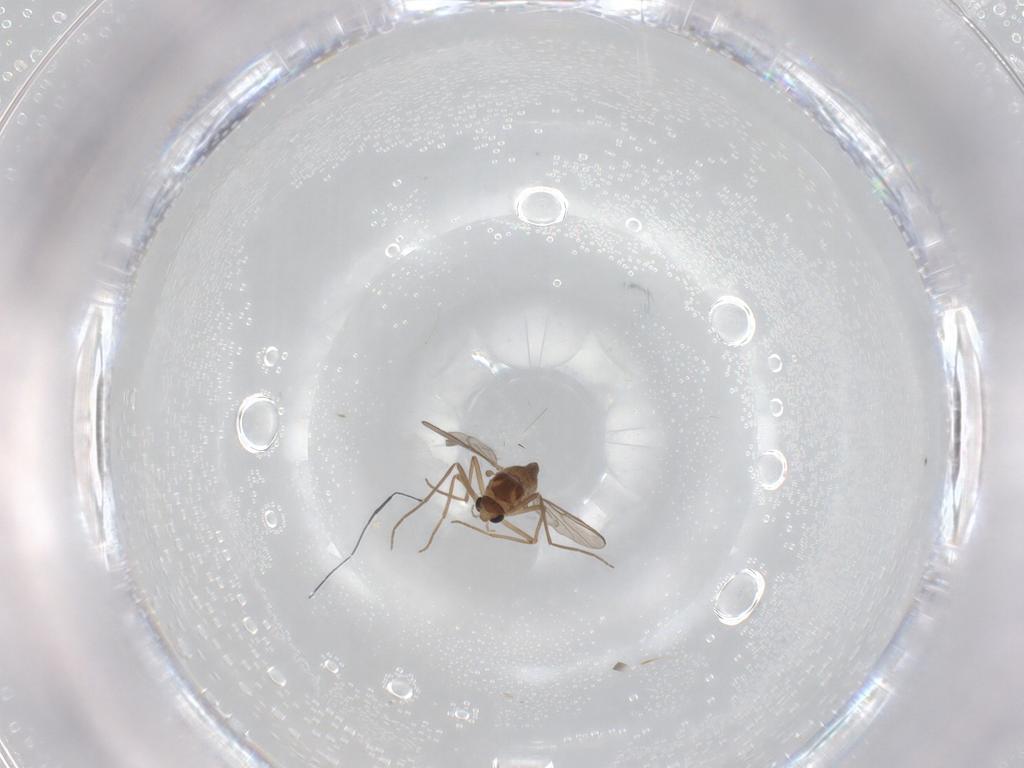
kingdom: Animalia
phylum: Arthropoda
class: Insecta
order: Diptera
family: Chironomidae
